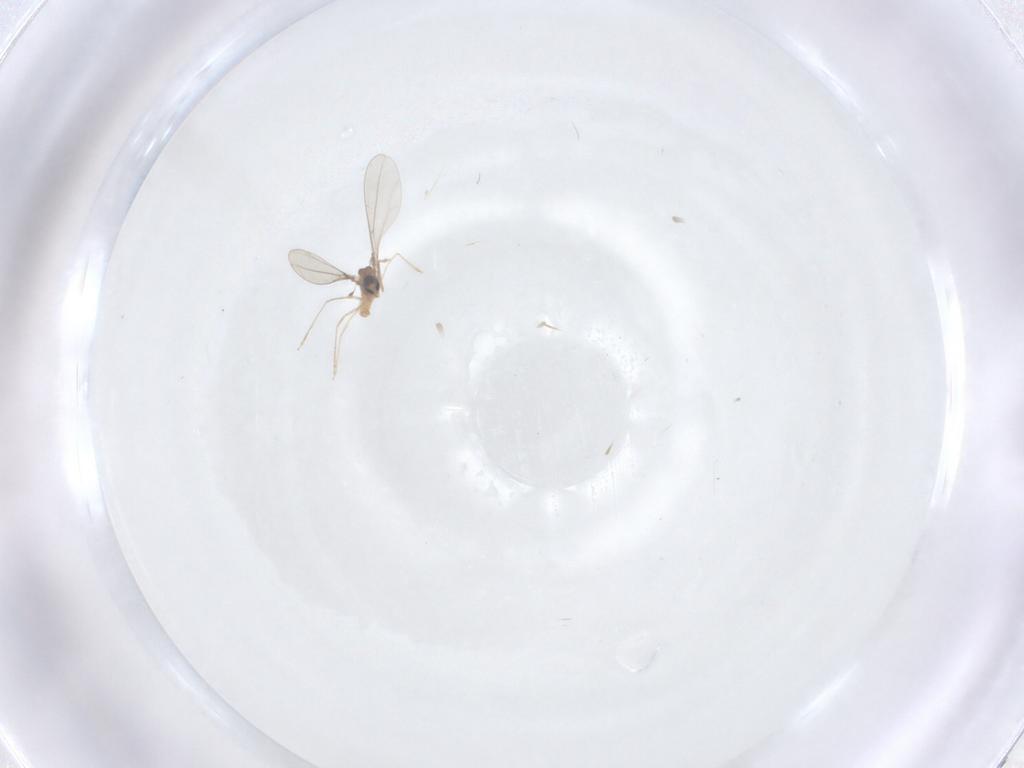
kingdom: Animalia
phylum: Arthropoda
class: Insecta
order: Diptera
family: Cecidomyiidae
